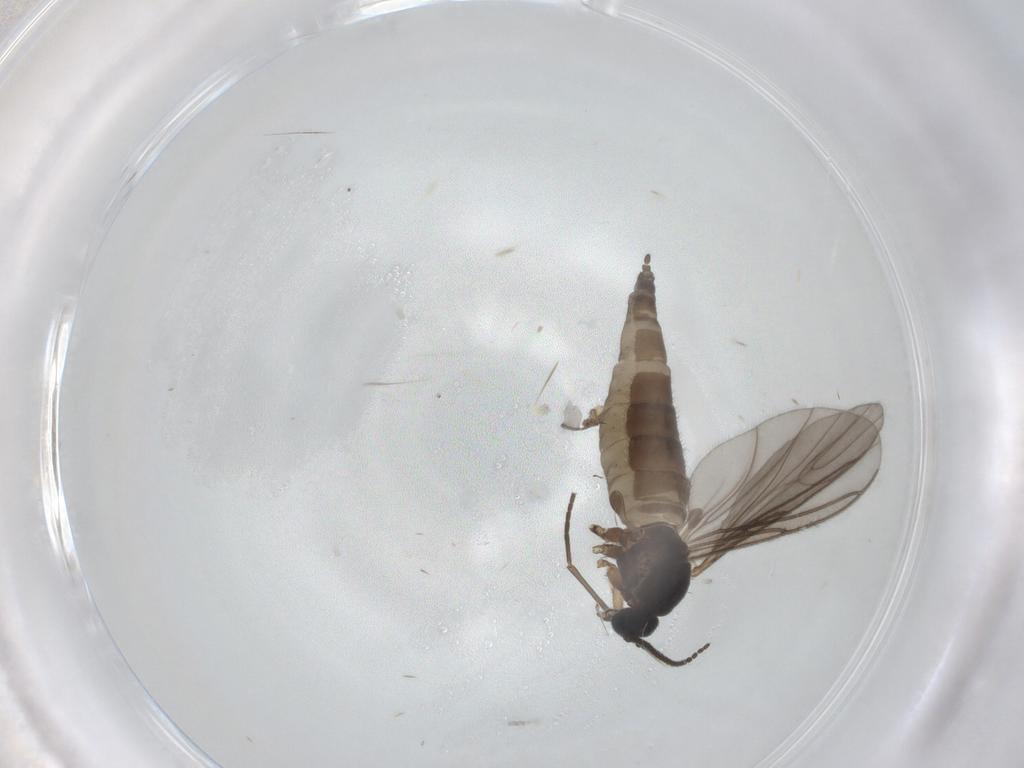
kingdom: Animalia
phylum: Arthropoda
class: Insecta
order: Diptera
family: Sciaridae
